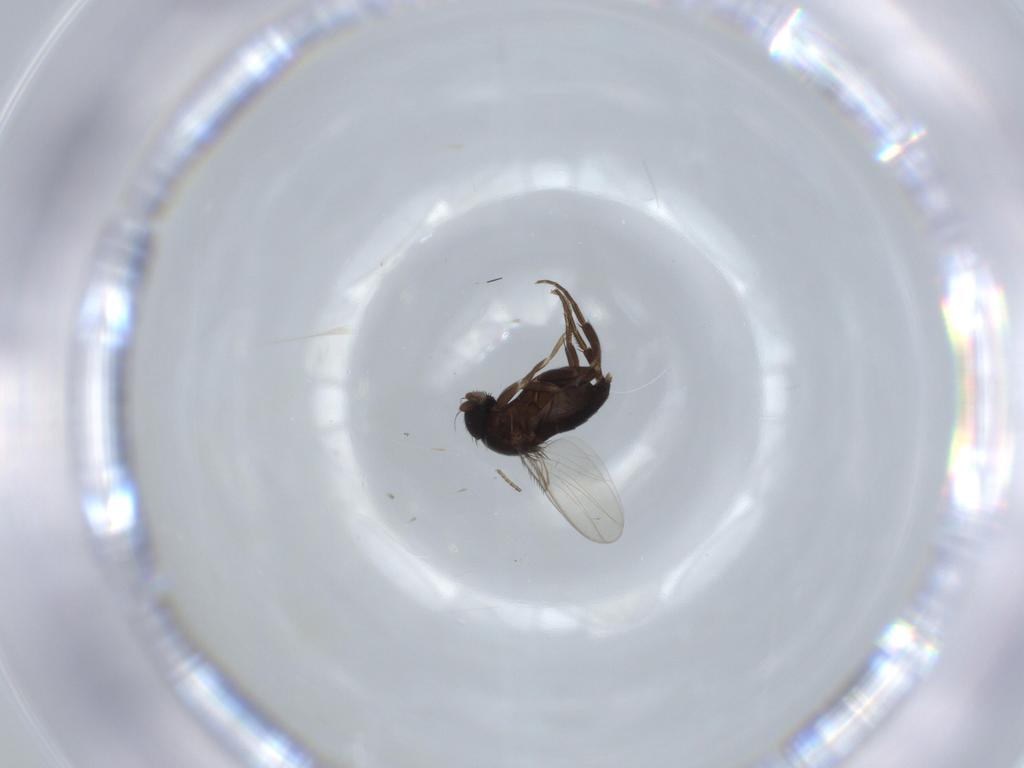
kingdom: Animalia
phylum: Arthropoda
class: Insecta
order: Diptera
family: Phoridae
